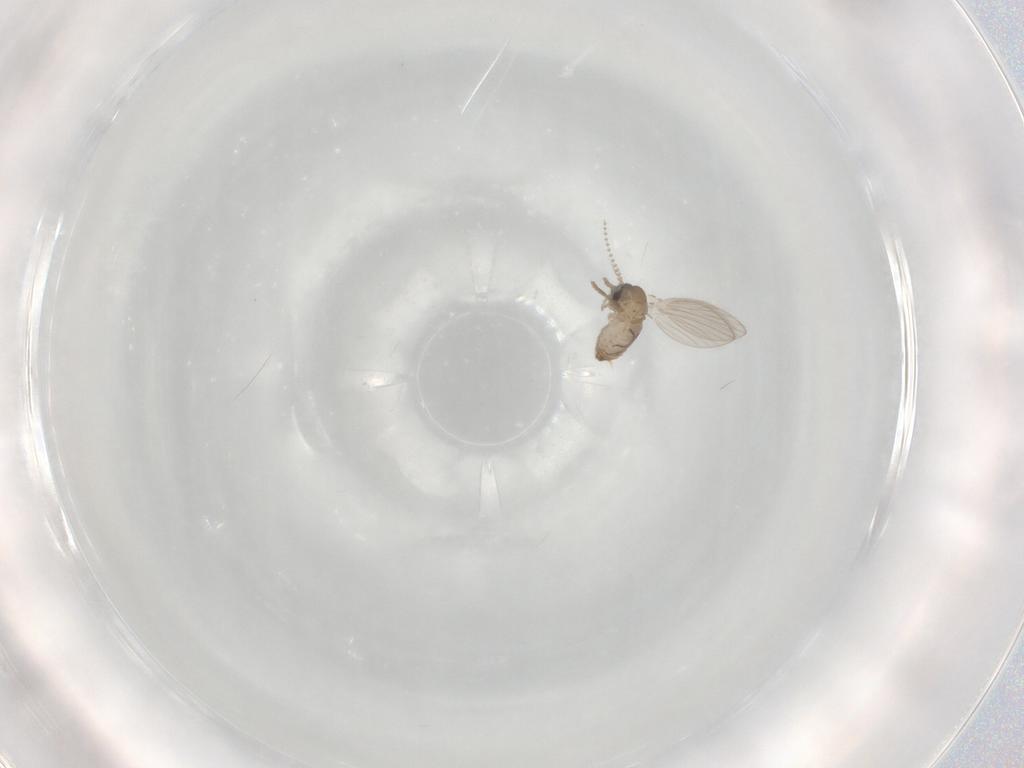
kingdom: Animalia
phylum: Arthropoda
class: Insecta
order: Diptera
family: Psychodidae
